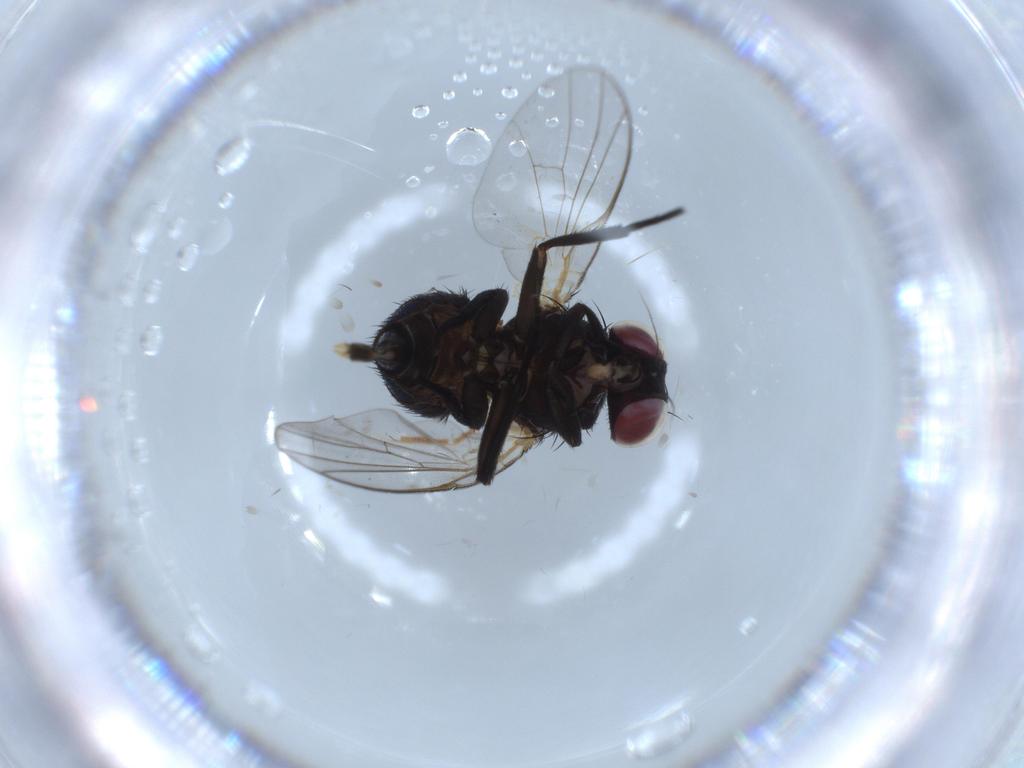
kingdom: Animalia
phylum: Arthropoda
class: Insecta
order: Diptera
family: Agromyzidae
